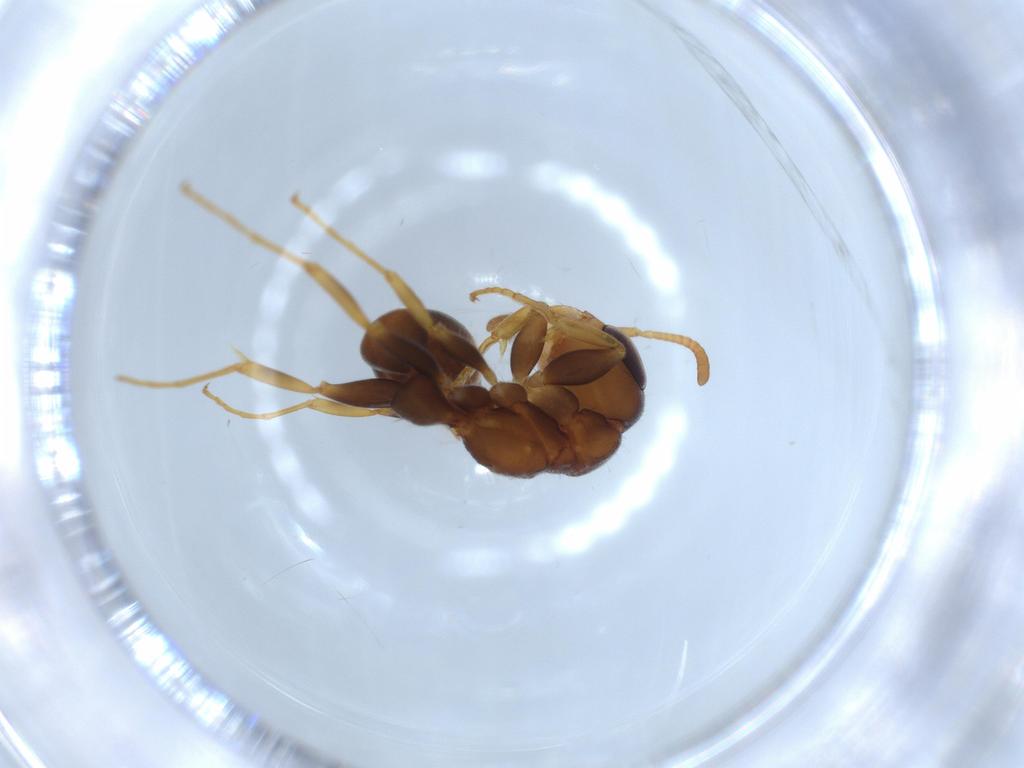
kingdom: Animalia
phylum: Arthropoda
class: Insecta
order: Hymenoptera
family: Formicidae
